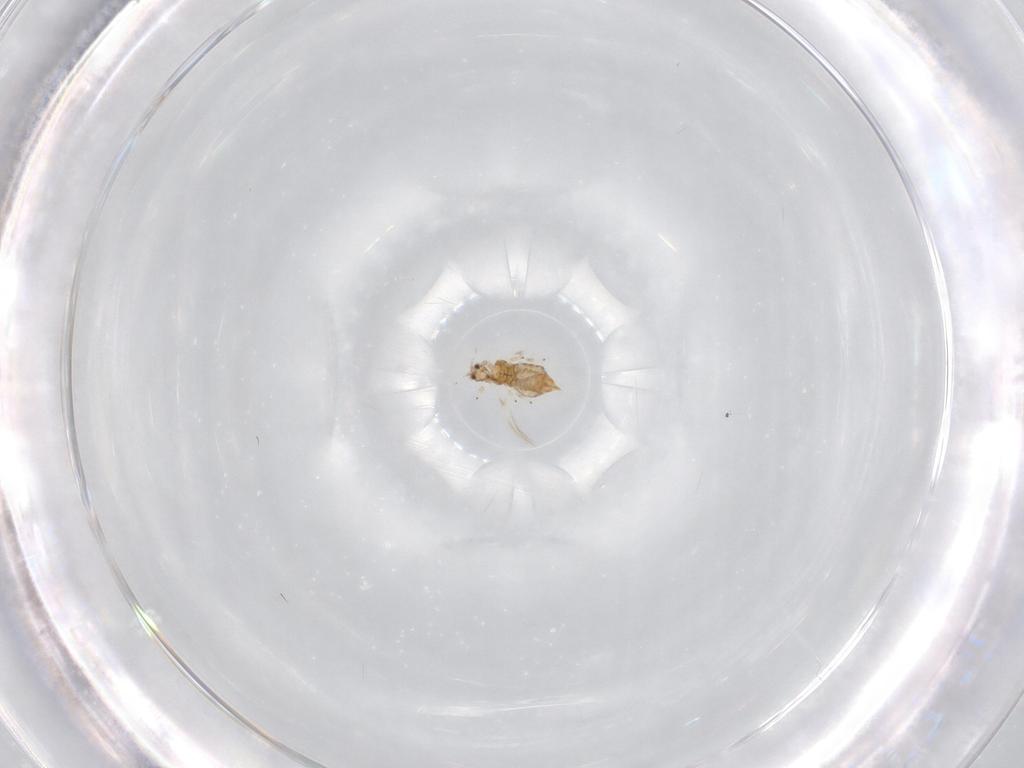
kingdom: Animalia
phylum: Arthropoda
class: Insecta
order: Thysanoptera
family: Thripidae
